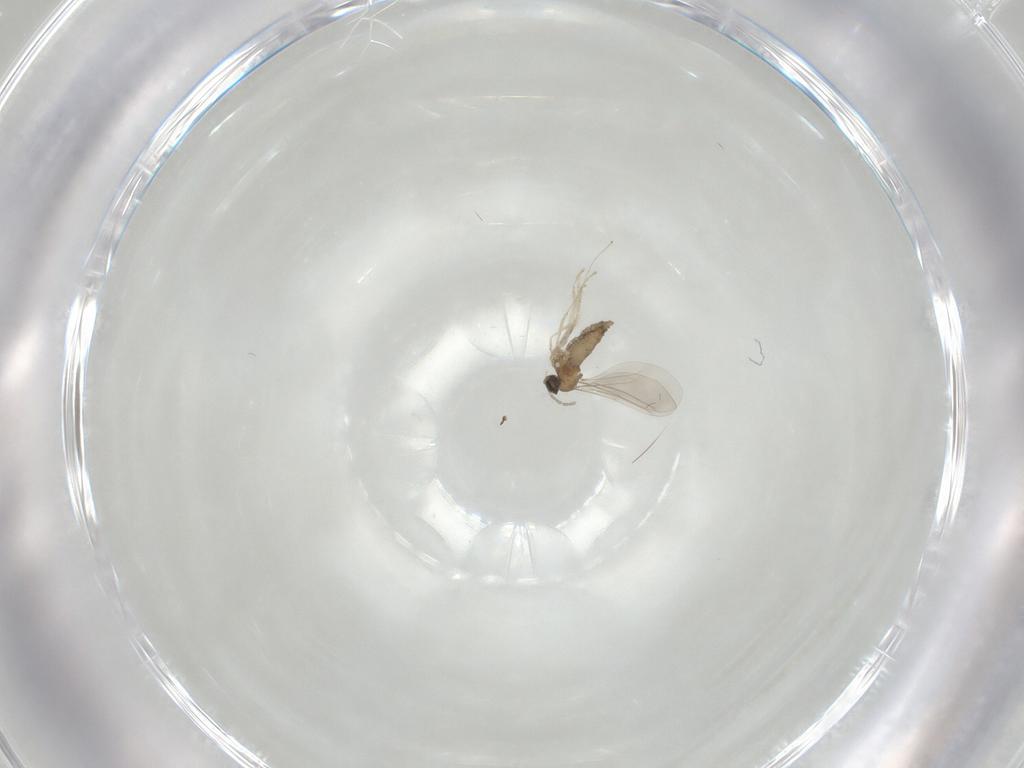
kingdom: Animalia
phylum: Arthropoda
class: Insecta
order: Diptera
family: Cecidomyiidae
